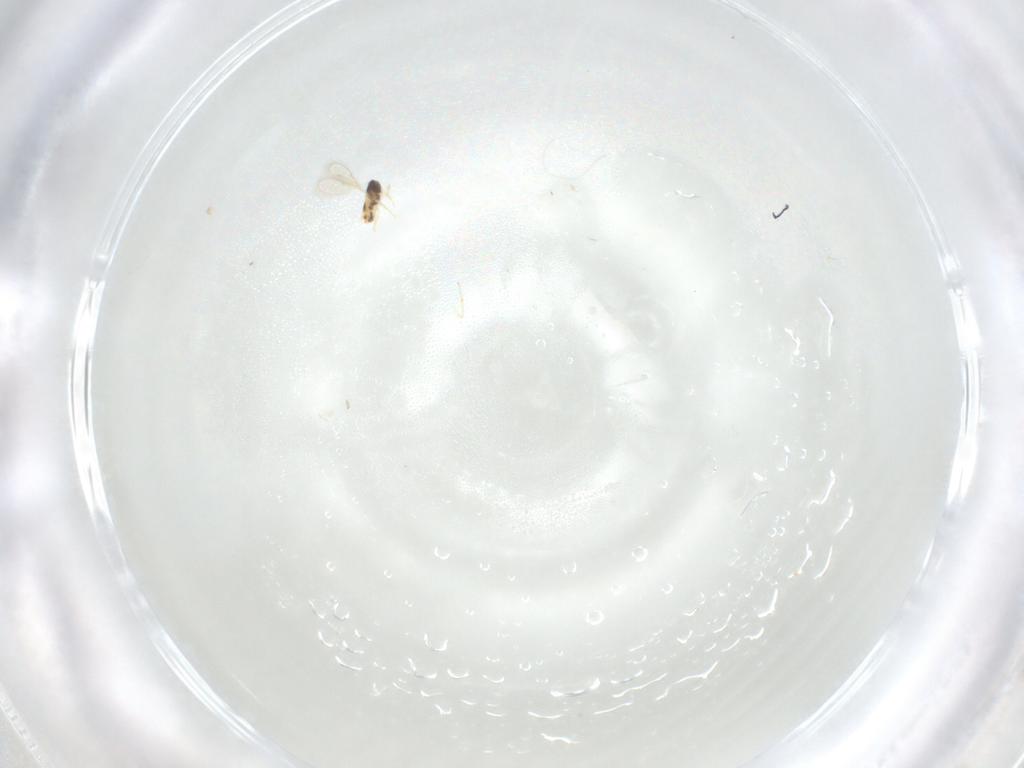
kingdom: Animalia
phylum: Arthropoda
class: Insecta
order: Hymenoptera
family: Aphelinidae
